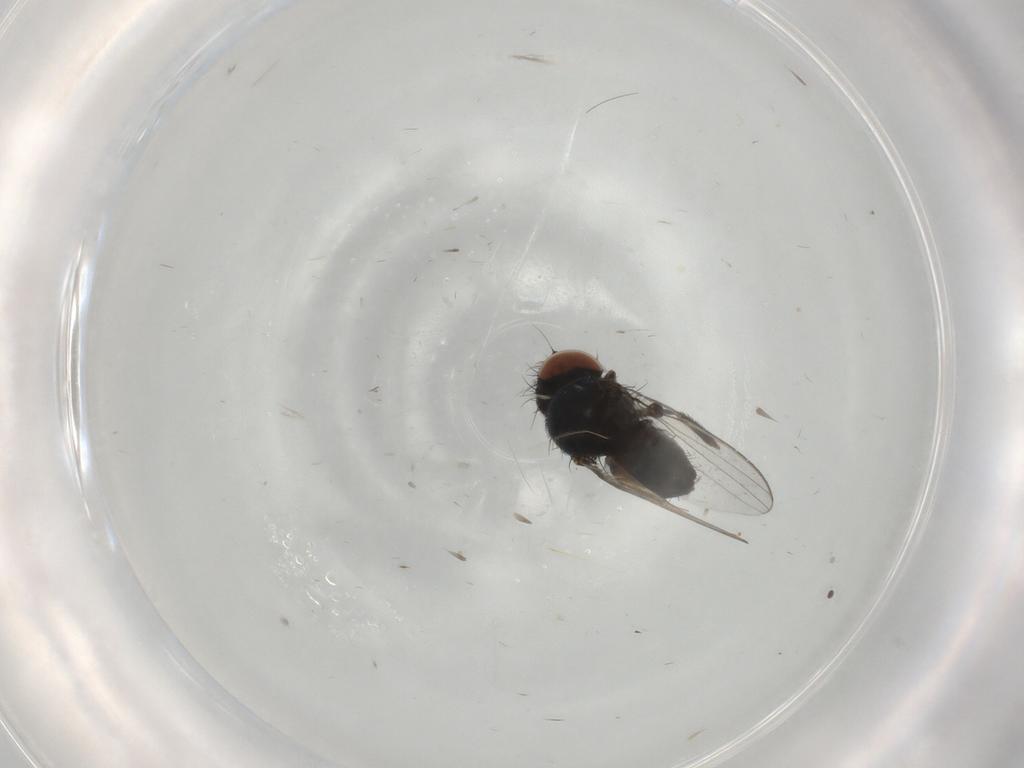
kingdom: Animalia
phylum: Arthropoda
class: Insecta
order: Diptera
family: Milichiidae
